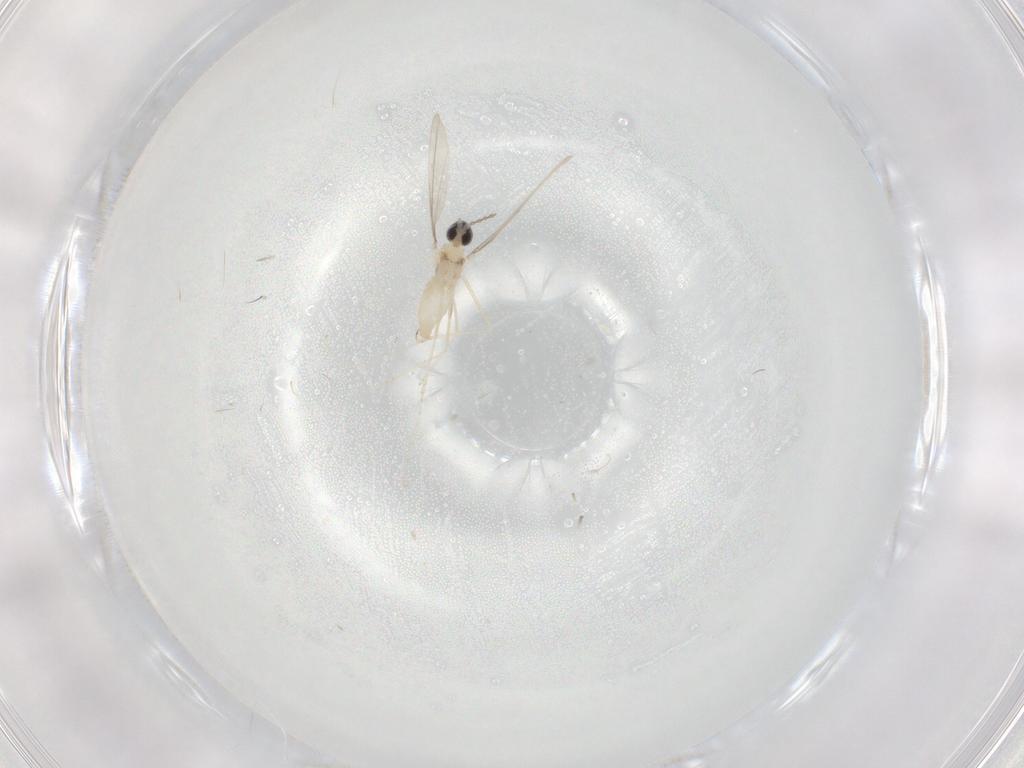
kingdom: Animalia
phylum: Arthropoda
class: Insecta
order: Diptera
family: Cecidomyiidae
